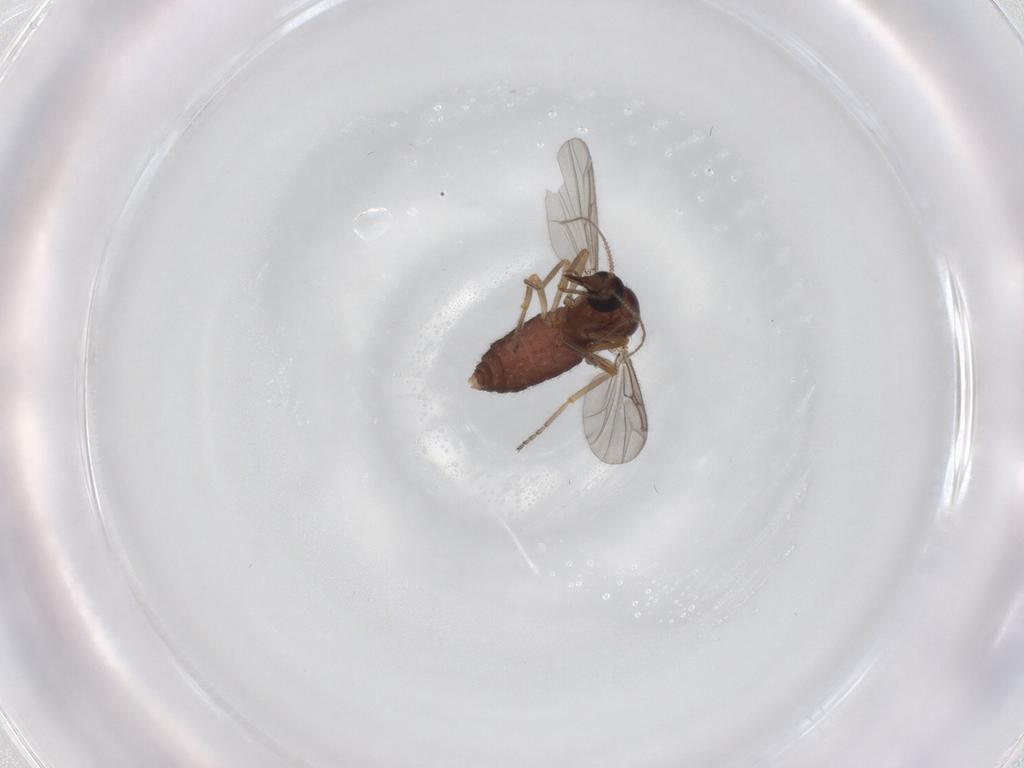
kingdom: Animalia
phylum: Arthropoda
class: Insecta
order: Diptera
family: Ceratopogonidae
